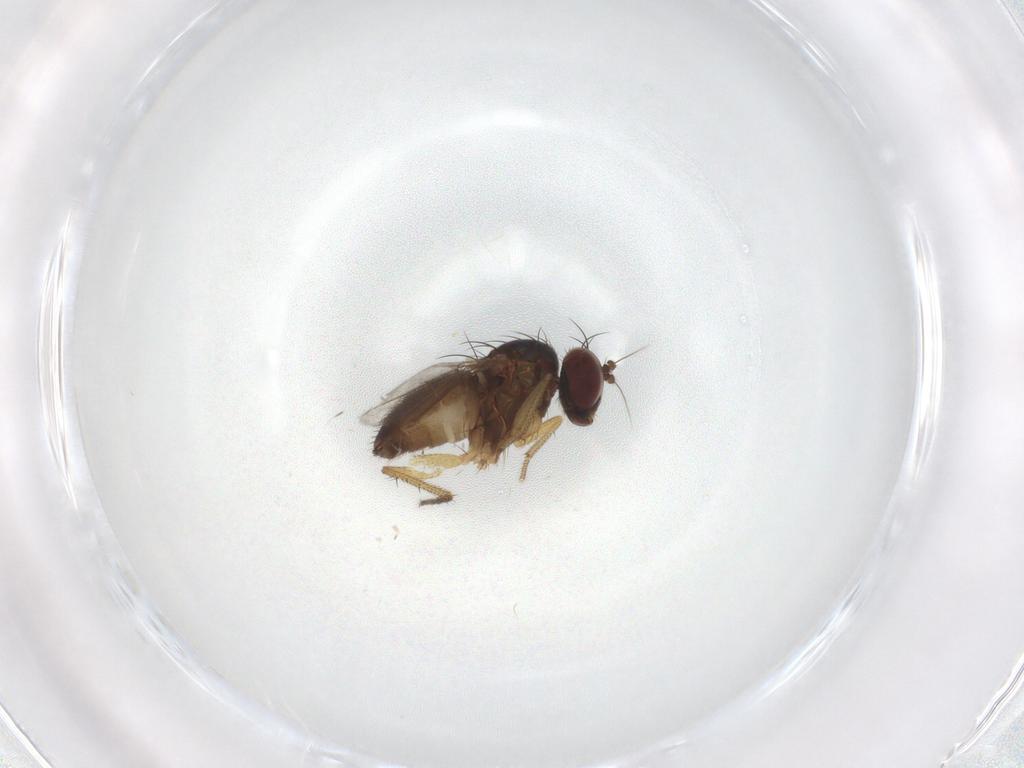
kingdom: Animalia
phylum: Arthropoda
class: Insecta
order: Diptera
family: Dolichopodidae
